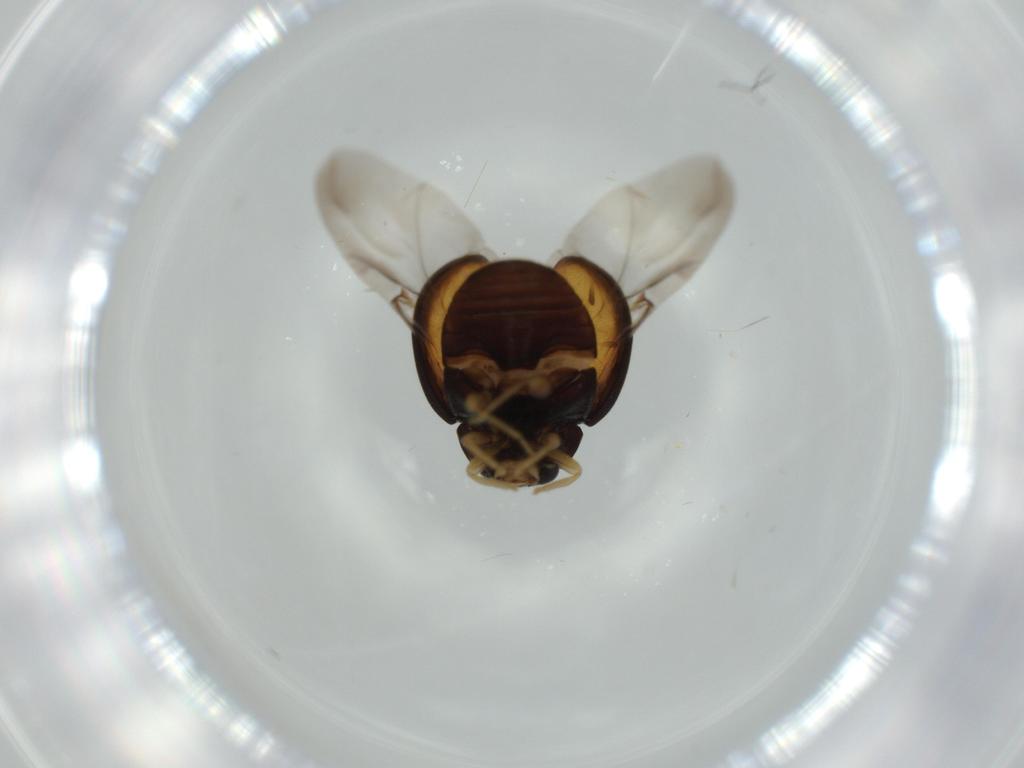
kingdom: Animalia
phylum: Arthropoda
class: Insecta
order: Coleoptera
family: Coccinellidae
